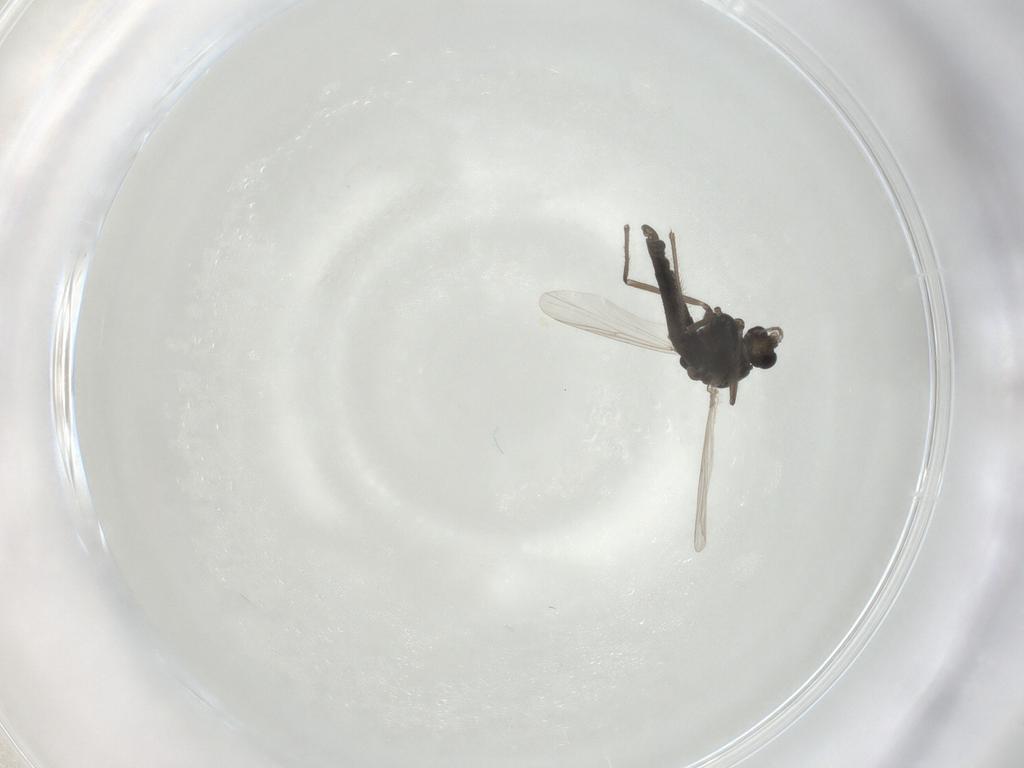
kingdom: Animalia
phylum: Arthropoda
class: Insecta
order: Diptera
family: Chironomidae
